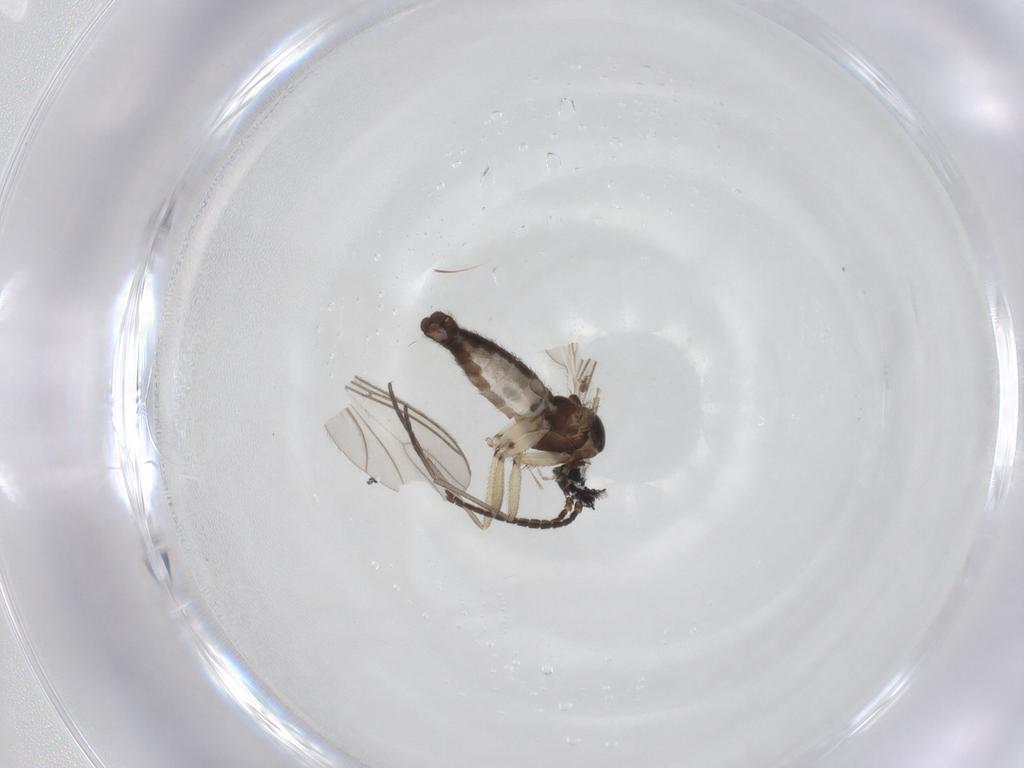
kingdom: Animalia
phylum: Arthropoda
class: Insecta
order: Diptera
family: Sciaridae
